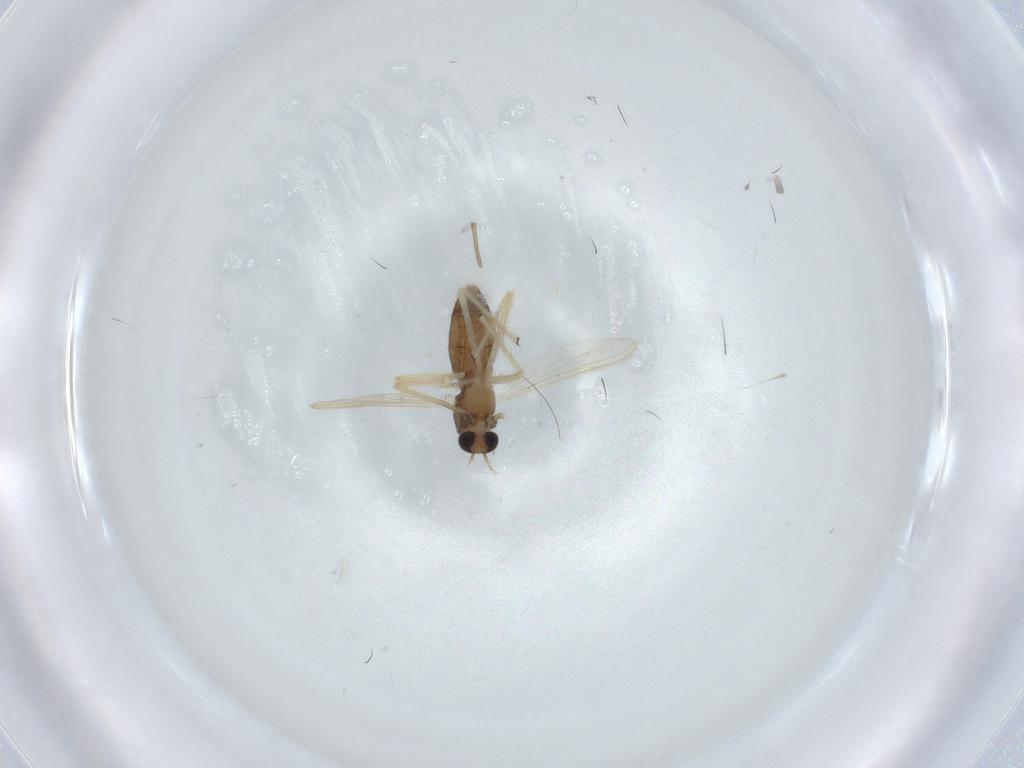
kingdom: Animalia
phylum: Arthropoda
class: Insecta
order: Diptera
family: Chironomidae
